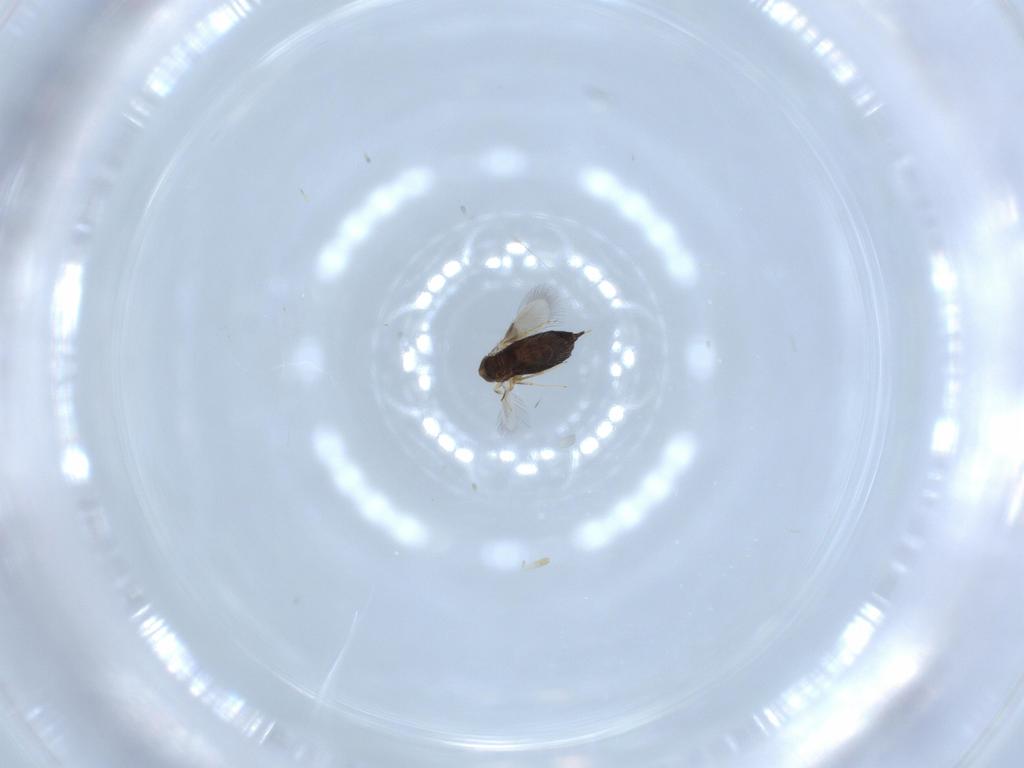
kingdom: Animalia
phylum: Arthropoda
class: Insecta
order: Hymenoptera
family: Signiphoridae
